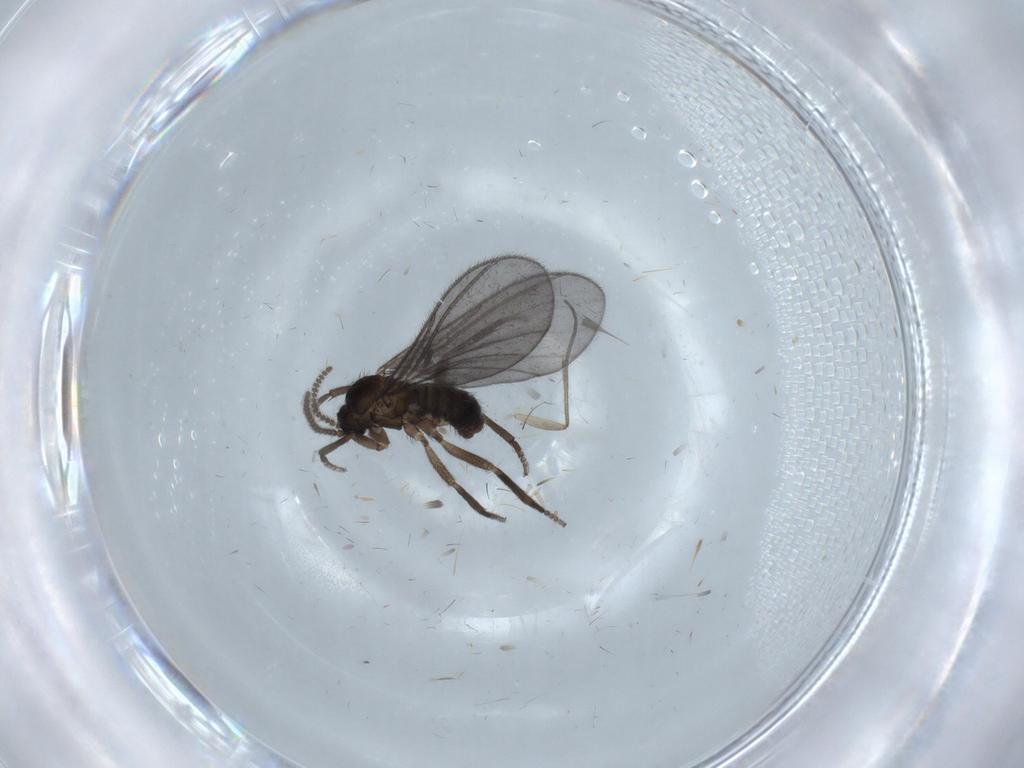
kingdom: Animalia
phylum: Arthropoda
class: Insecta
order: Diptera
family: Sciaridae
